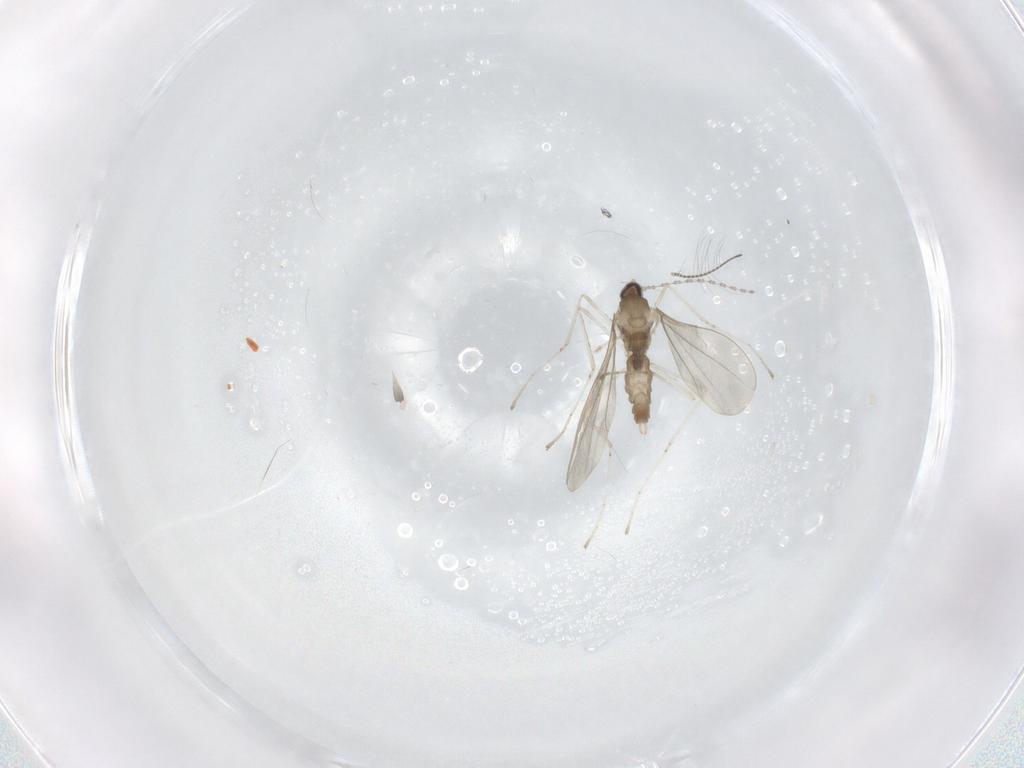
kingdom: Animalia
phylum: Arthropoda
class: Insecta
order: Diptera
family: Chironomidae
